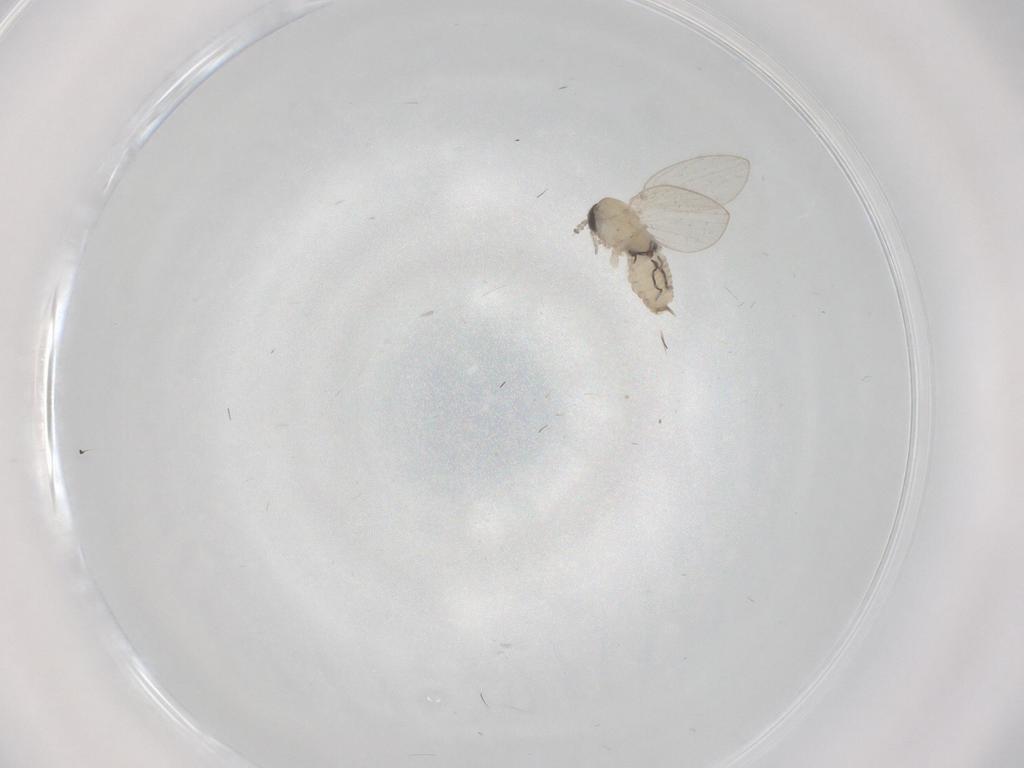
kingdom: Animalia
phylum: Arthropoda
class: Insecta
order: Diptera
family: Psychodidae
